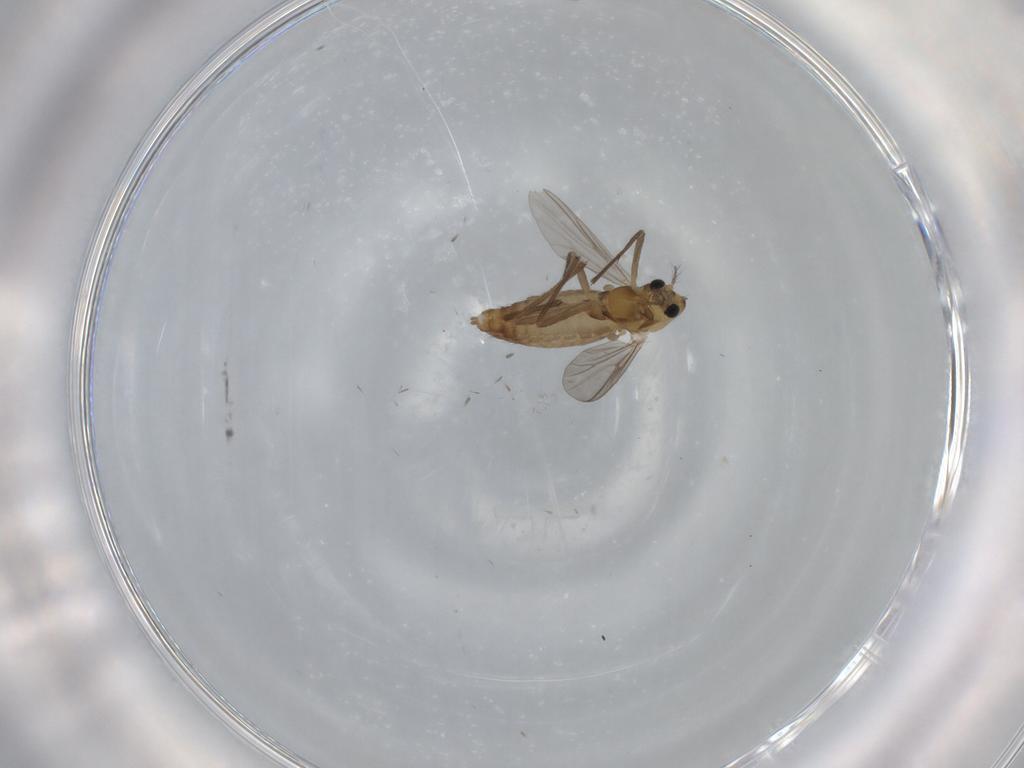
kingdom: Animalia
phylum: Arthropoda
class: Insecta
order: Diptera
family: Chironomidae
